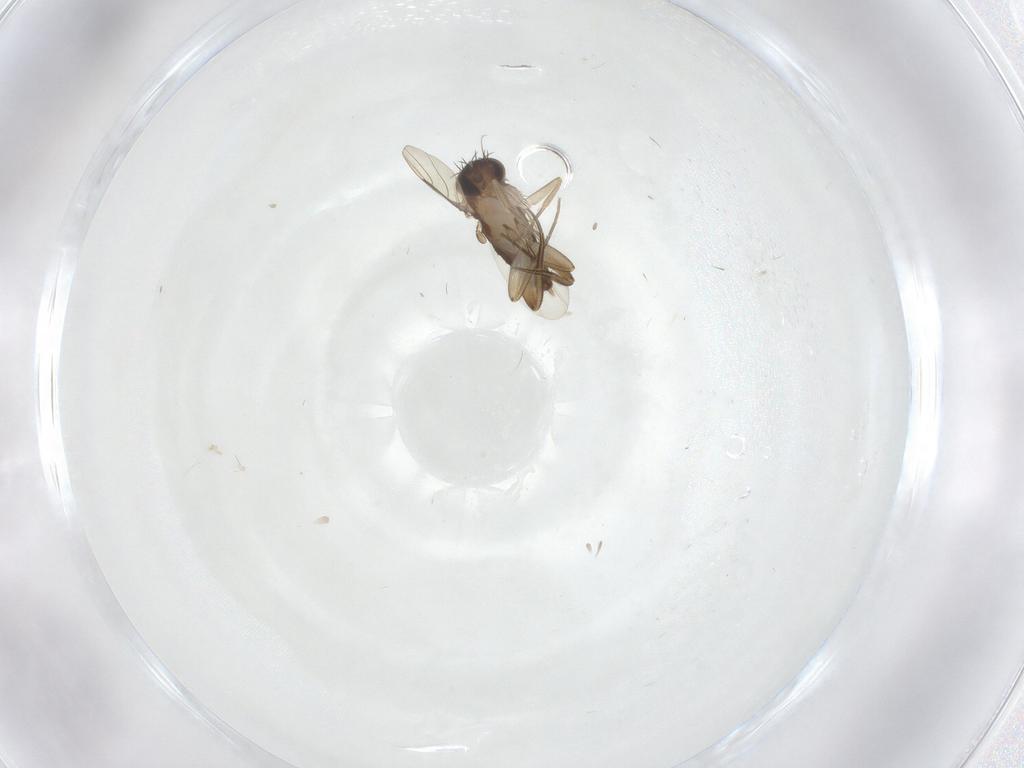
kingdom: Animalia
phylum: Arthropoda
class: Insecta
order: Diptera
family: Phoridae
